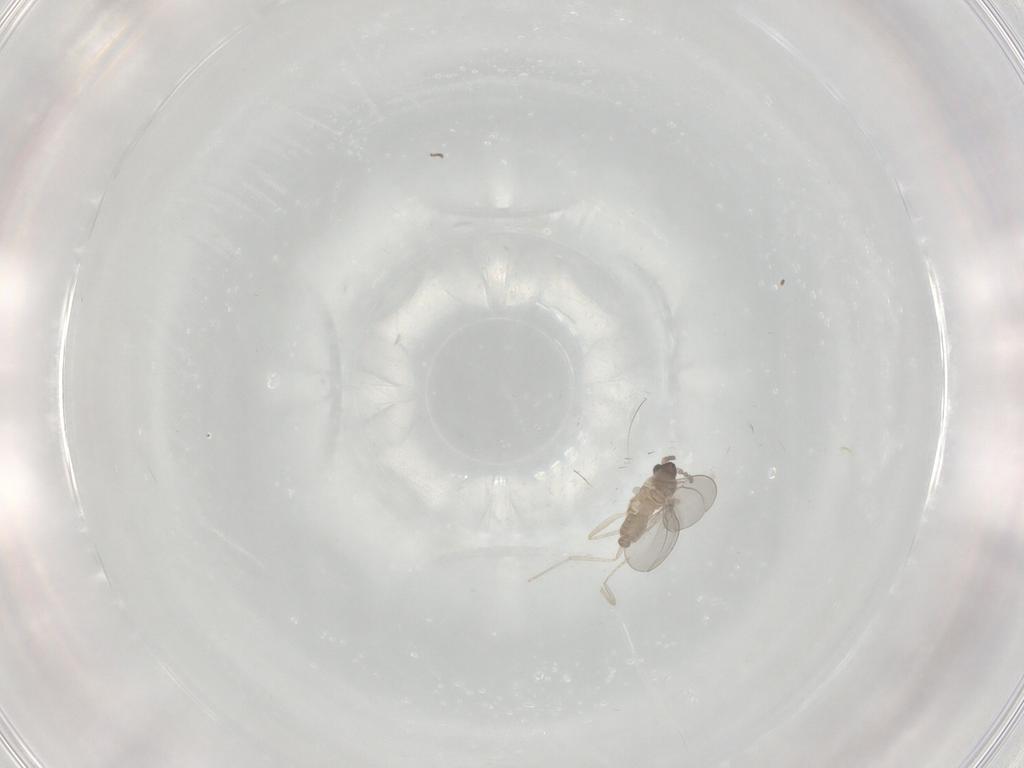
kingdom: Animalia
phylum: Arthropoda
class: Insecta
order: Diptera
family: Cecidomyiidae
